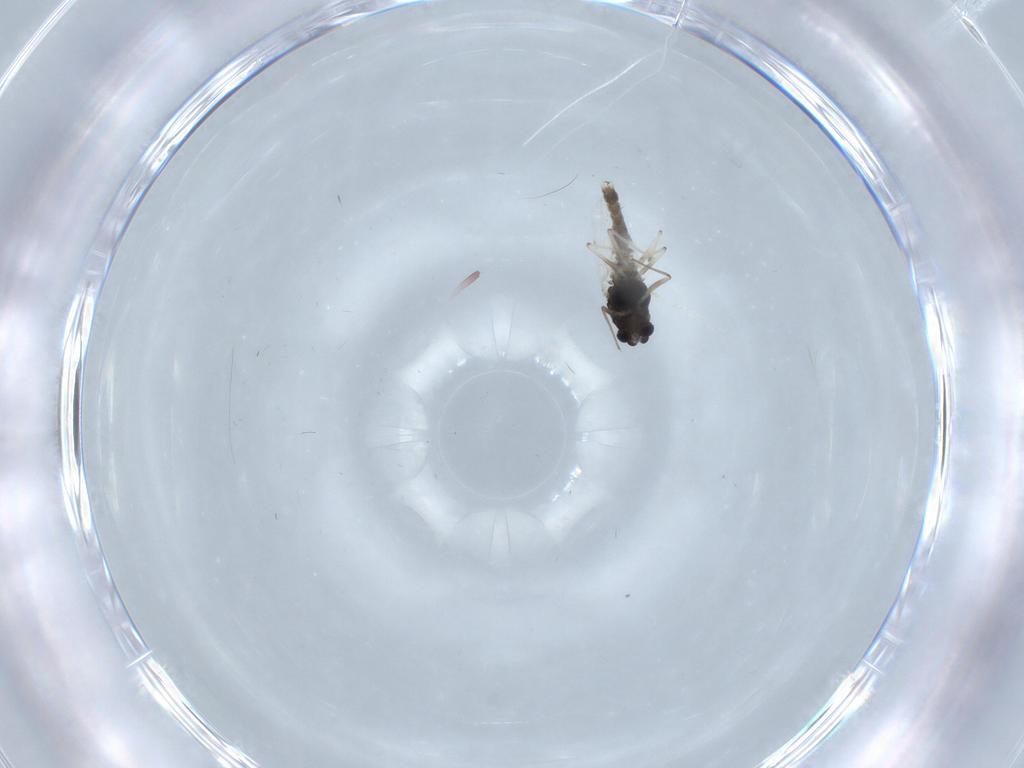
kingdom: Animalia
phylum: Arthropoda
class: Insecta
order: Diptera
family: Chironomidae
